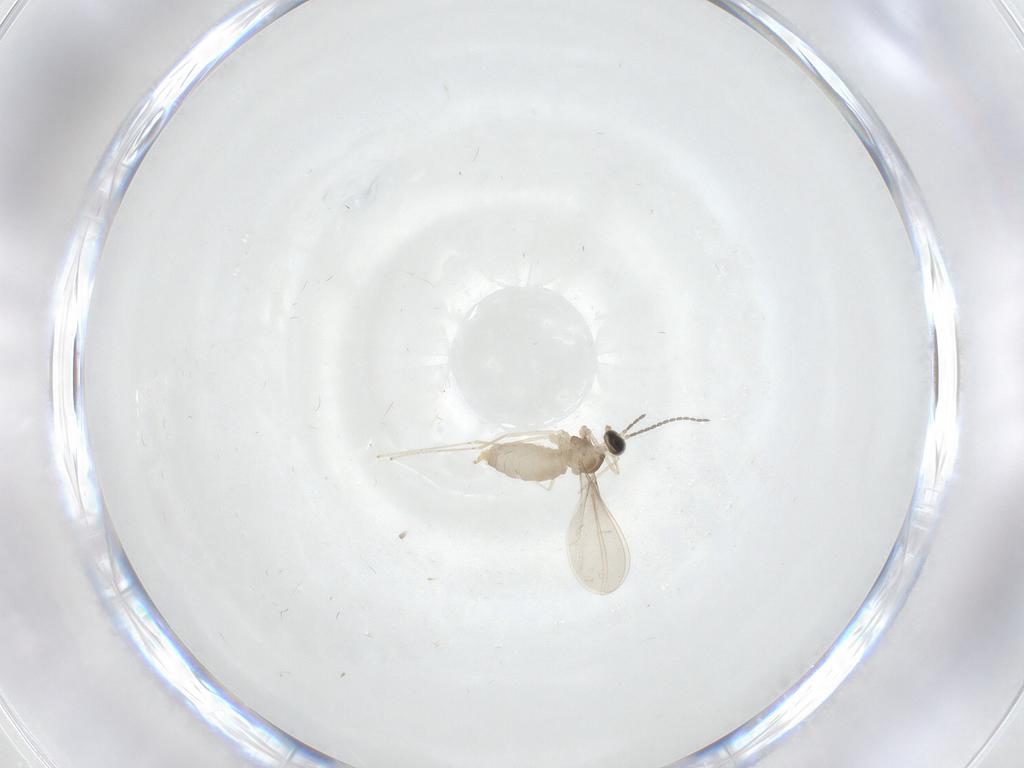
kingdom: Animalia
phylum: Arthropoda
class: Insecta
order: Diptera
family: Cecidomyiidae
